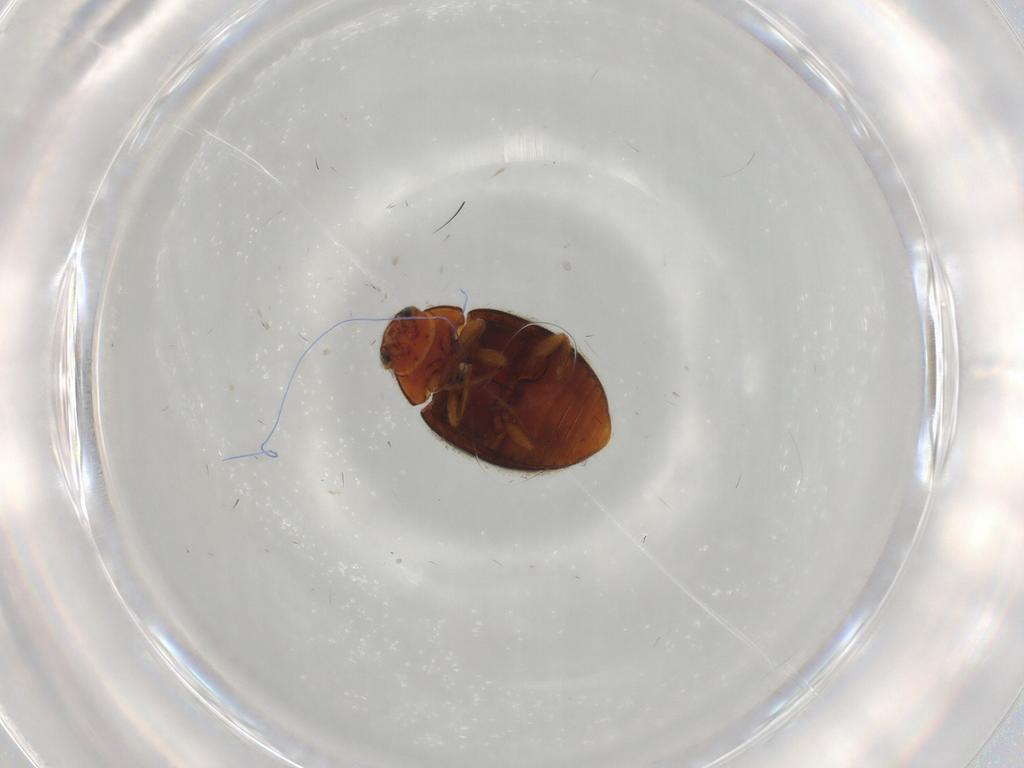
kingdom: Animalia
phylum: Arthropoda
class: Insecta
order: Coleoptera
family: Coccinellidae
